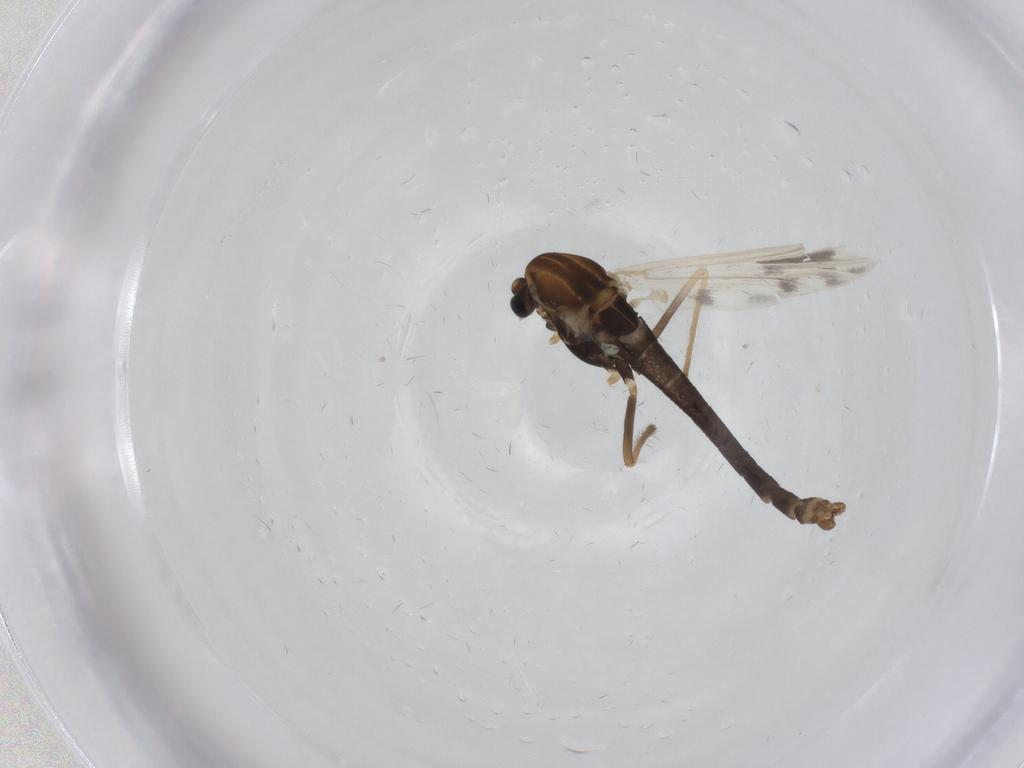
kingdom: Animalia
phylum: Arthropoda
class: Insecta
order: Diptera
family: Chironomidae
